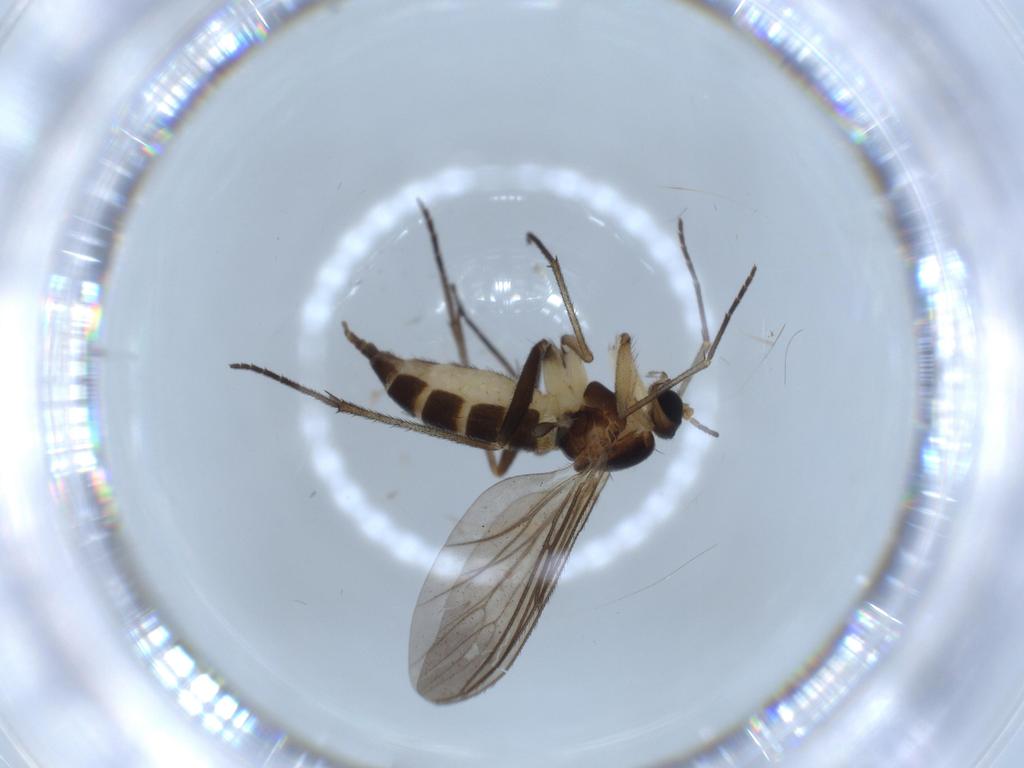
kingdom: Animalia
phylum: Arthropoda
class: Insecta
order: Diptera
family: Sciaridae
